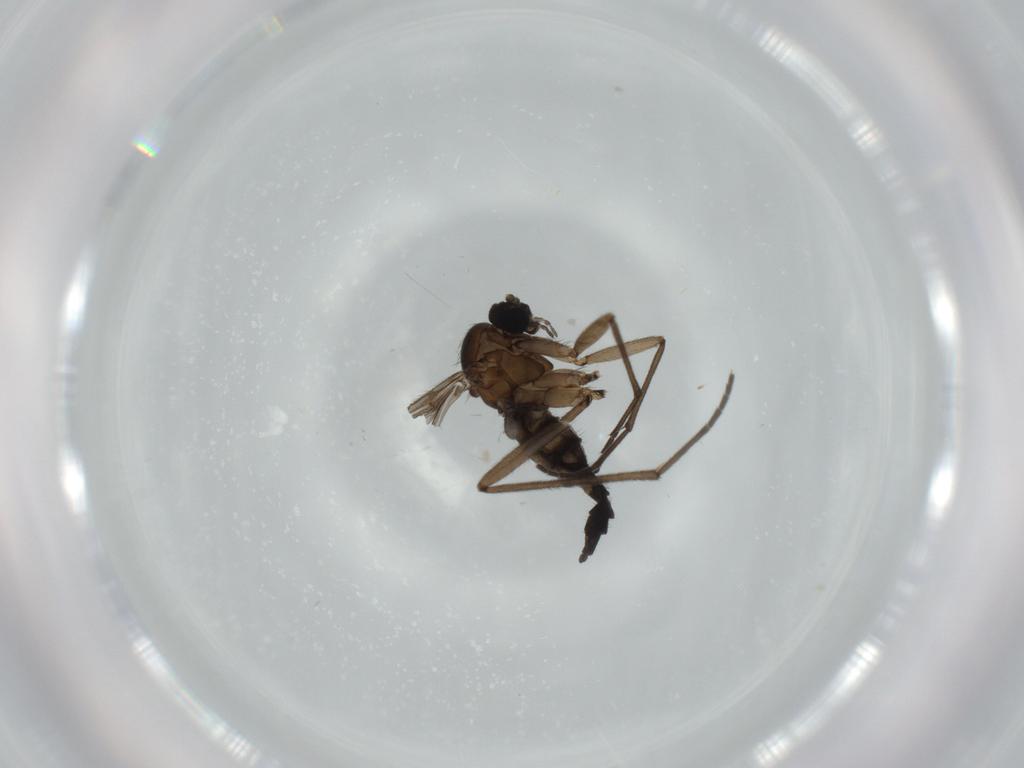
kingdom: Animalia
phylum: Arthropoda
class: Insecta
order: Diptera
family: Sciaridae
